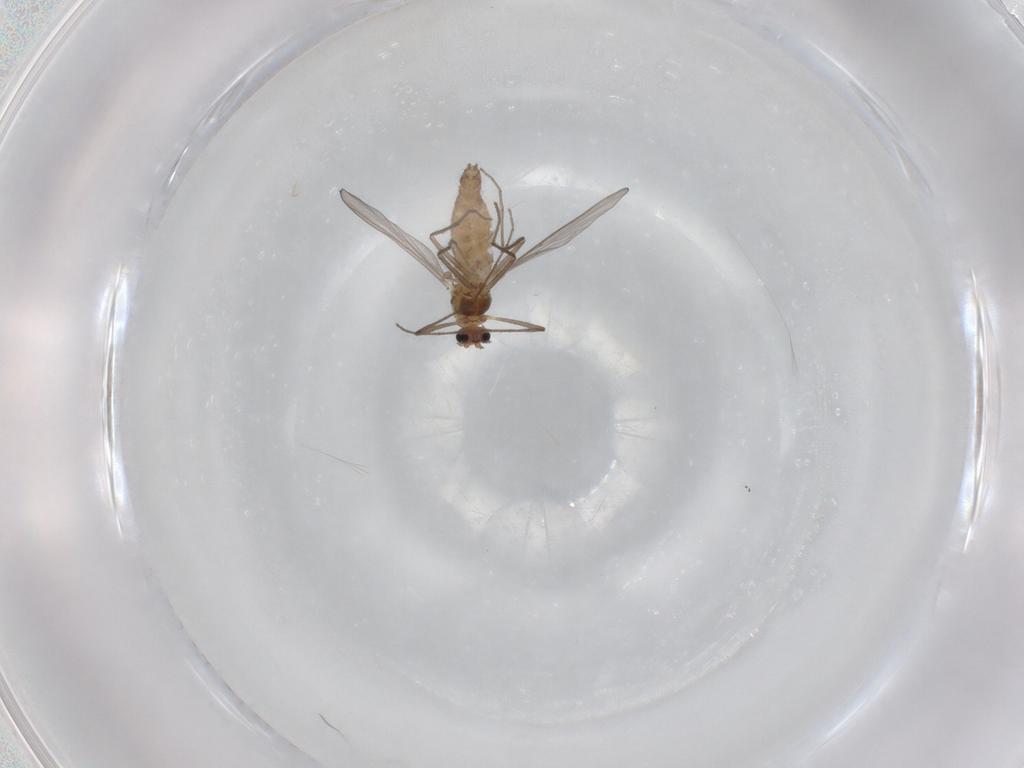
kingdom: Animalia
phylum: Arthropoda
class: Insecta
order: Diptera
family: Chironomidae
